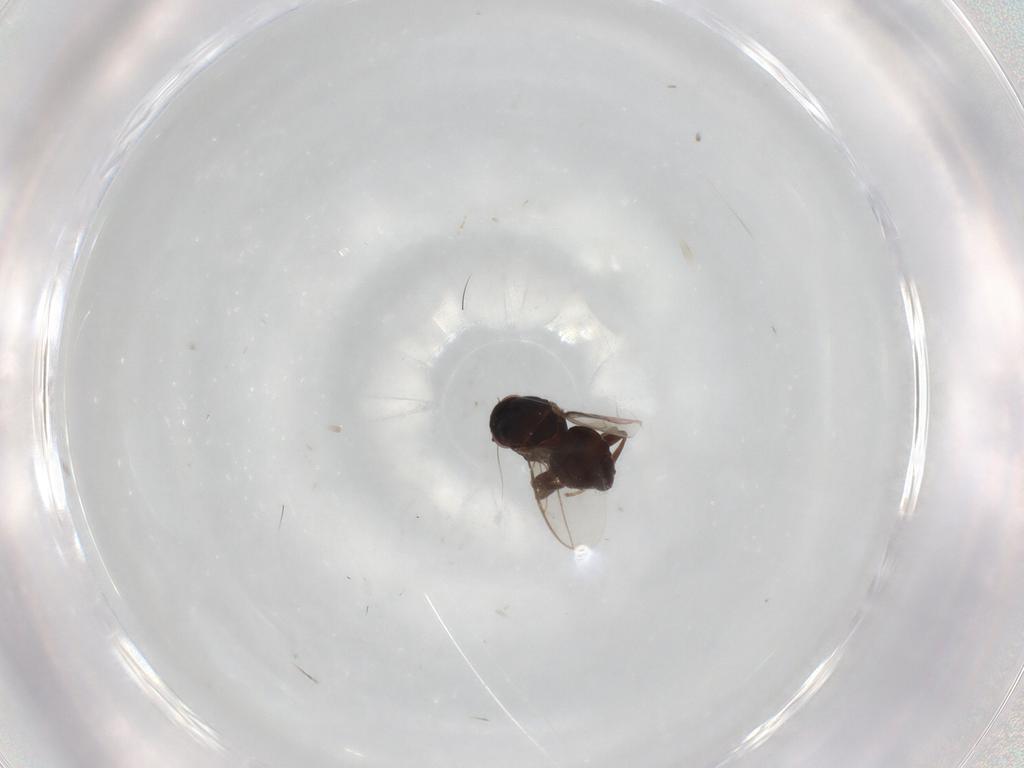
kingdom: Animalia
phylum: Arthropoda
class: Insecta
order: Diptera
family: Sphaeroceridae
